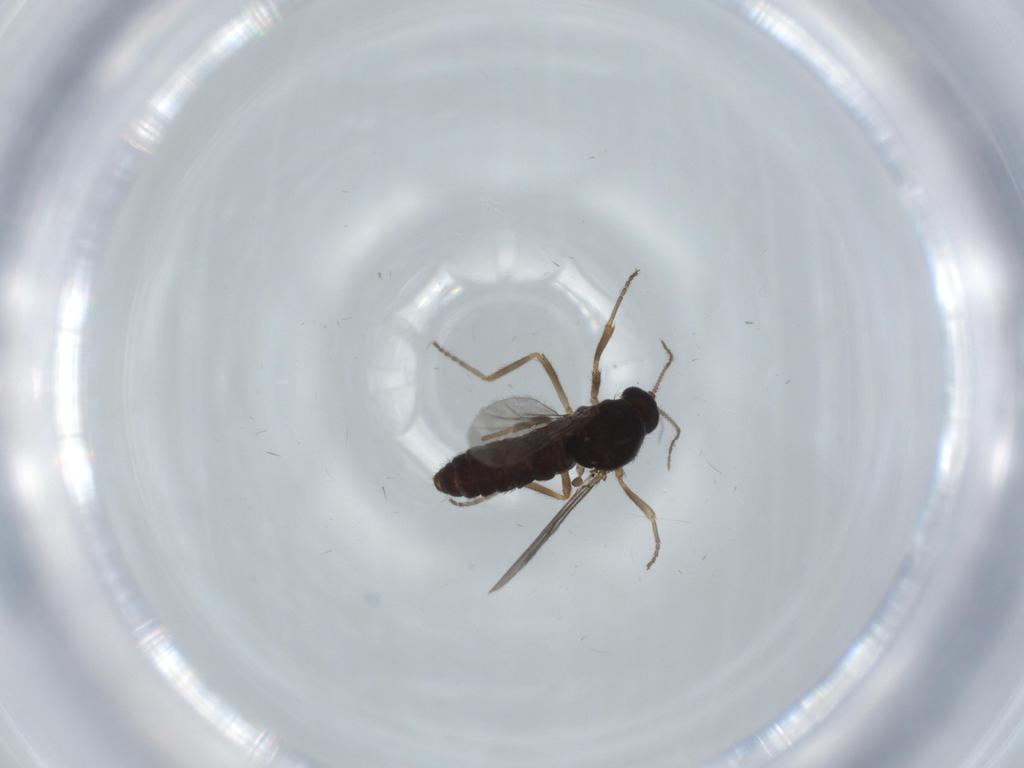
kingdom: Animalia
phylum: Arthropoda
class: Insecta
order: Diptera
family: Ceratopogonidae
